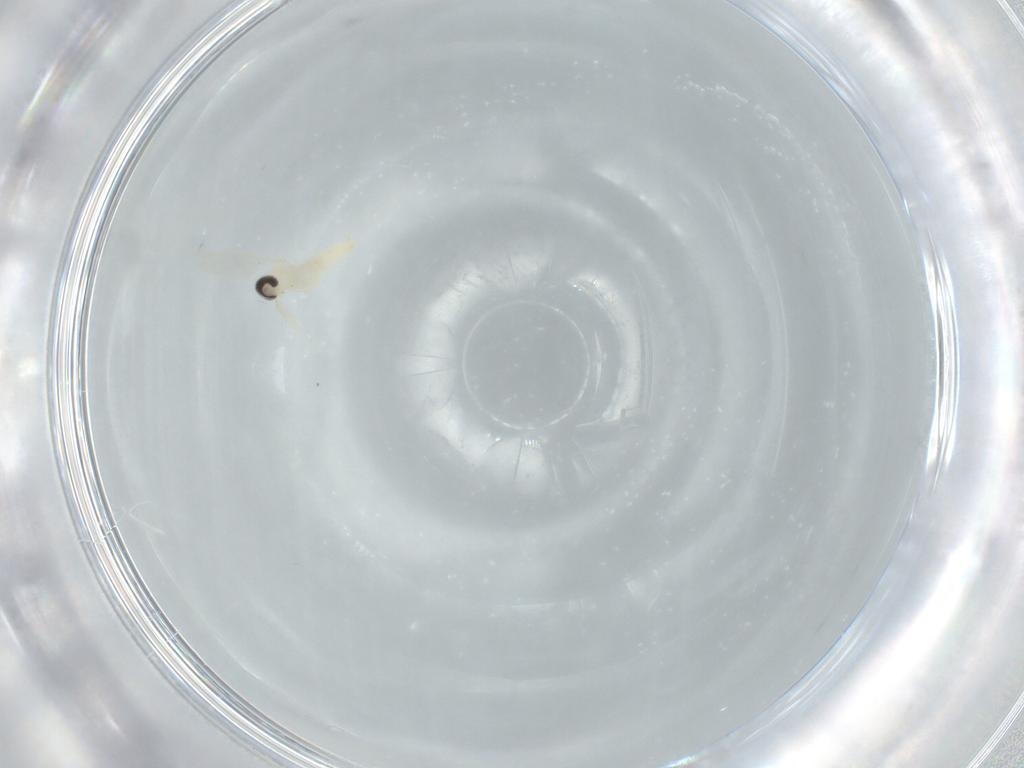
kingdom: Animalia
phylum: Arthropoda
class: Insecta
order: Diptera
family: Cecidomyiidae
